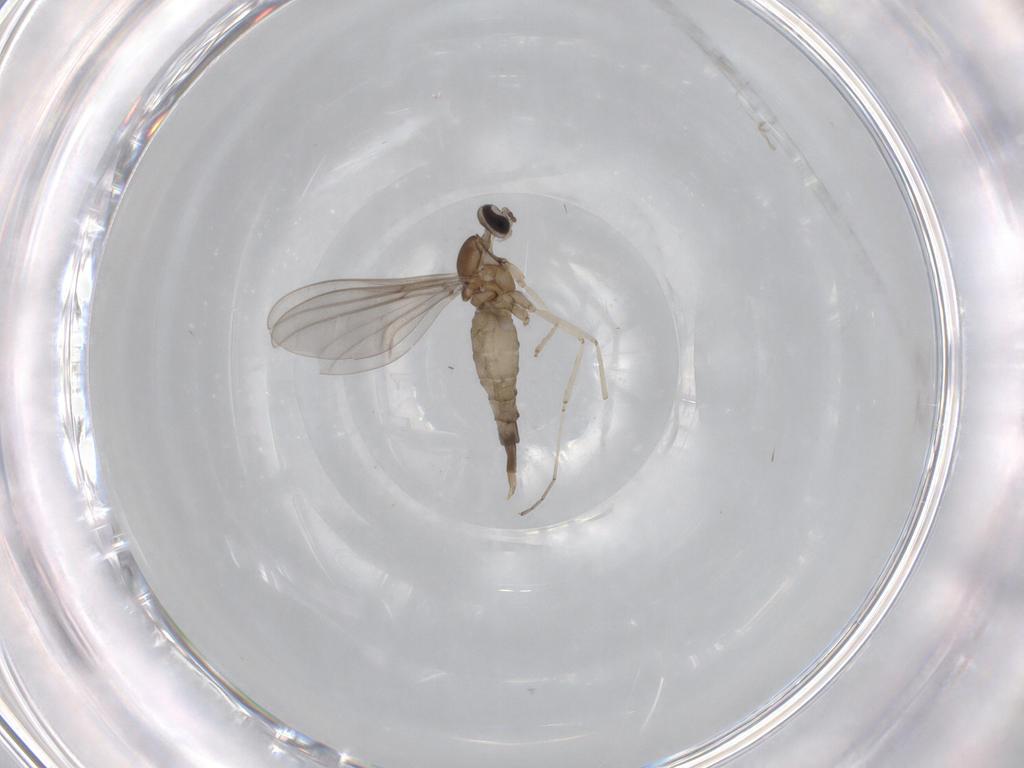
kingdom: Animalia
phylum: Arthropoda
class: Insecta
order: Diptera
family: Cecidomyiidae
